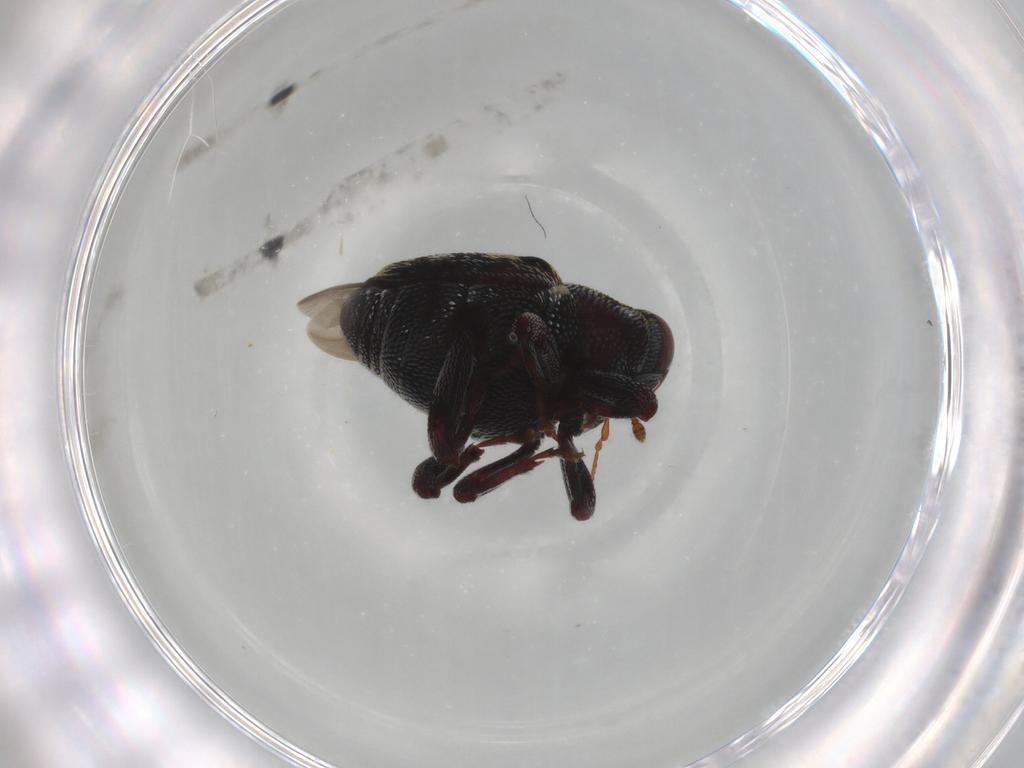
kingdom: Animalia
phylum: Arthropoda
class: Insecta
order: Coleoptera
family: Curculionidae
